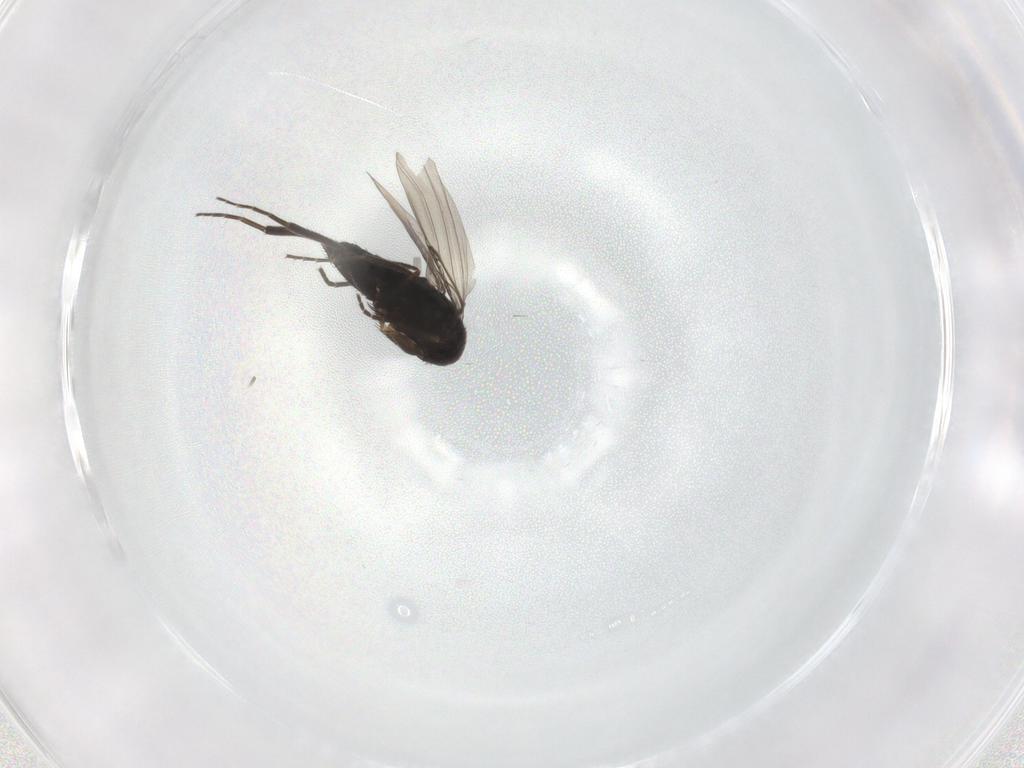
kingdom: Animalia
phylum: Arthropoda
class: Insecta
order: Diptera
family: Phoridae
